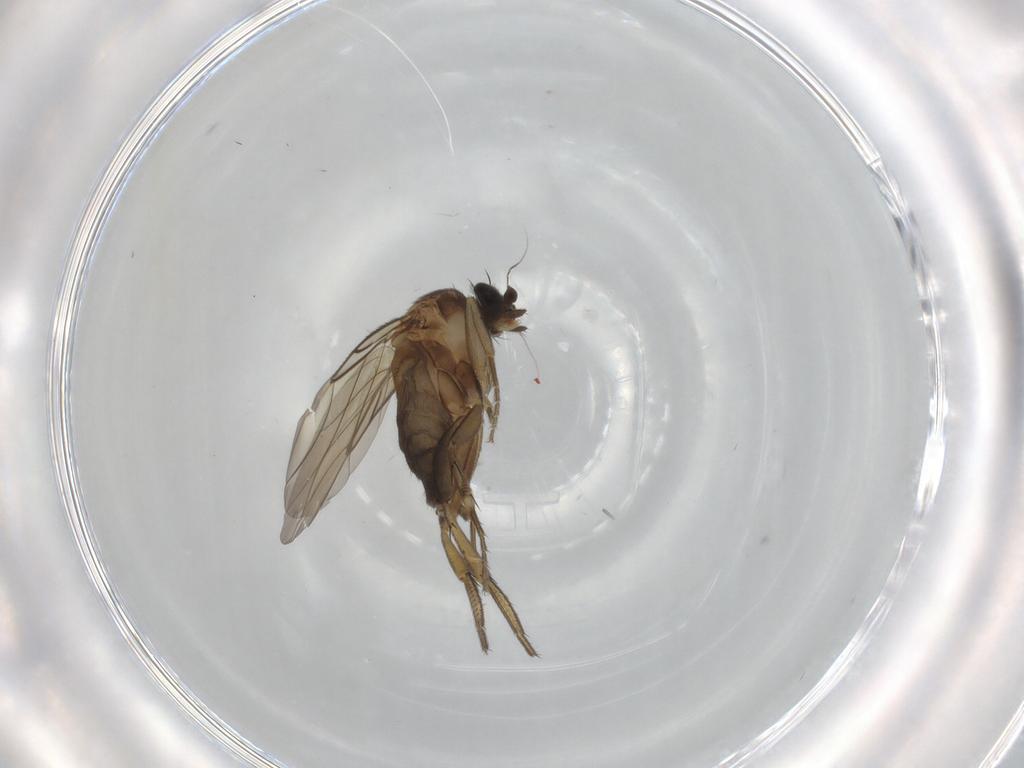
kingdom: Animalia
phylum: Arthropoda
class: Insecta
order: Diptera
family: Phoridae
